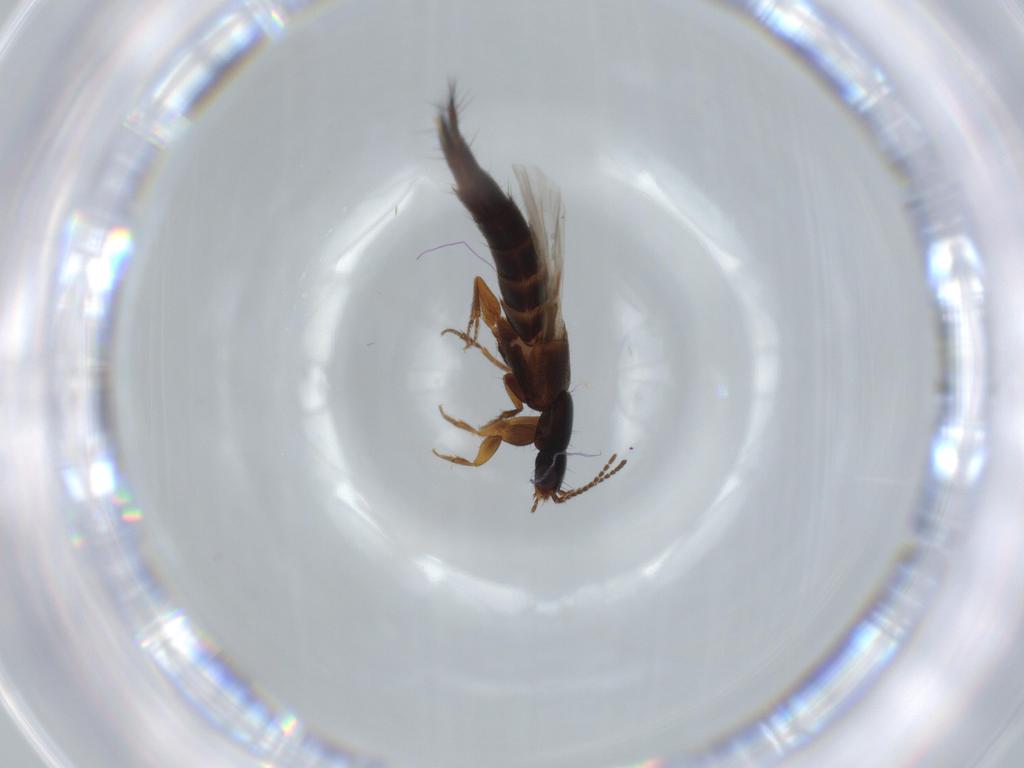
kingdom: Animalia
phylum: Arthropoda
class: Insecta
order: Coleoptera
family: Staphylinidae
